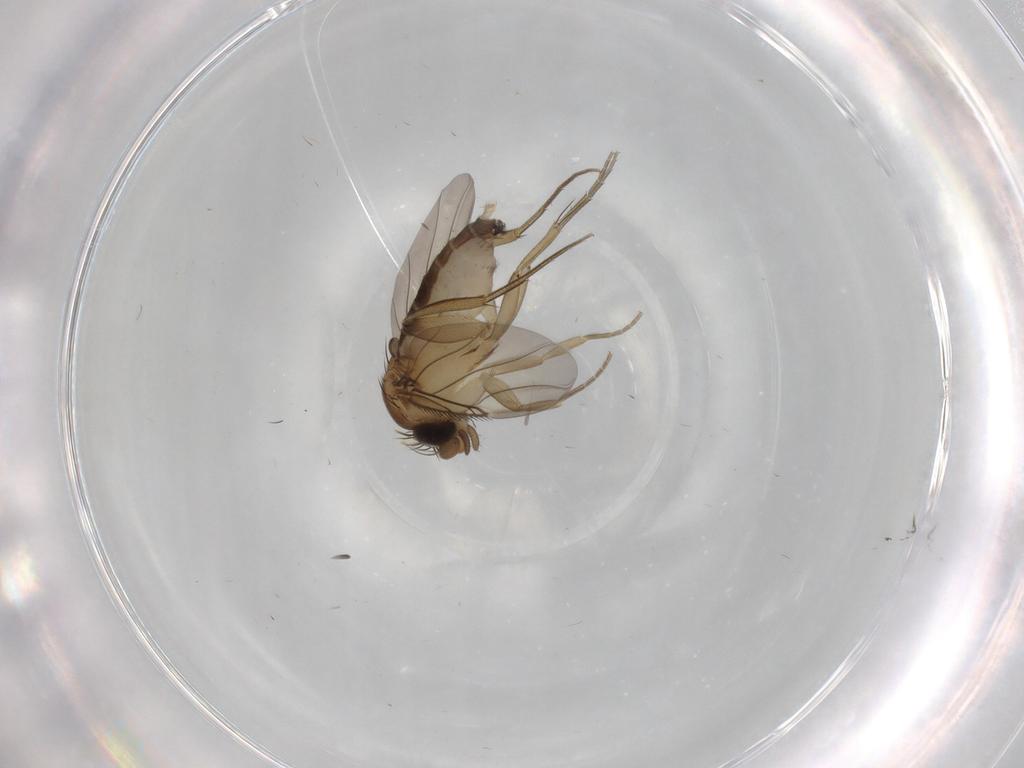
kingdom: Animalia
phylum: Arthropoda
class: Insecta
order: Diptera
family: Phoridae
